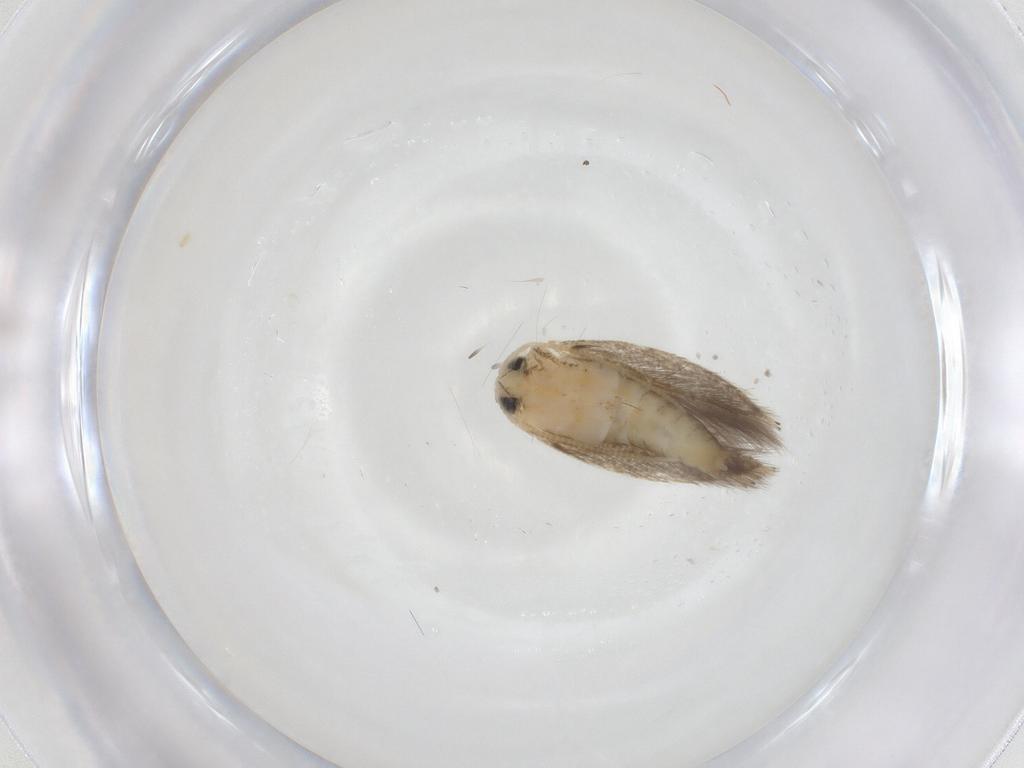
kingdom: Animalia
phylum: Arthropoda
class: Insecta
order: Lepidoptera
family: Opostegidae
